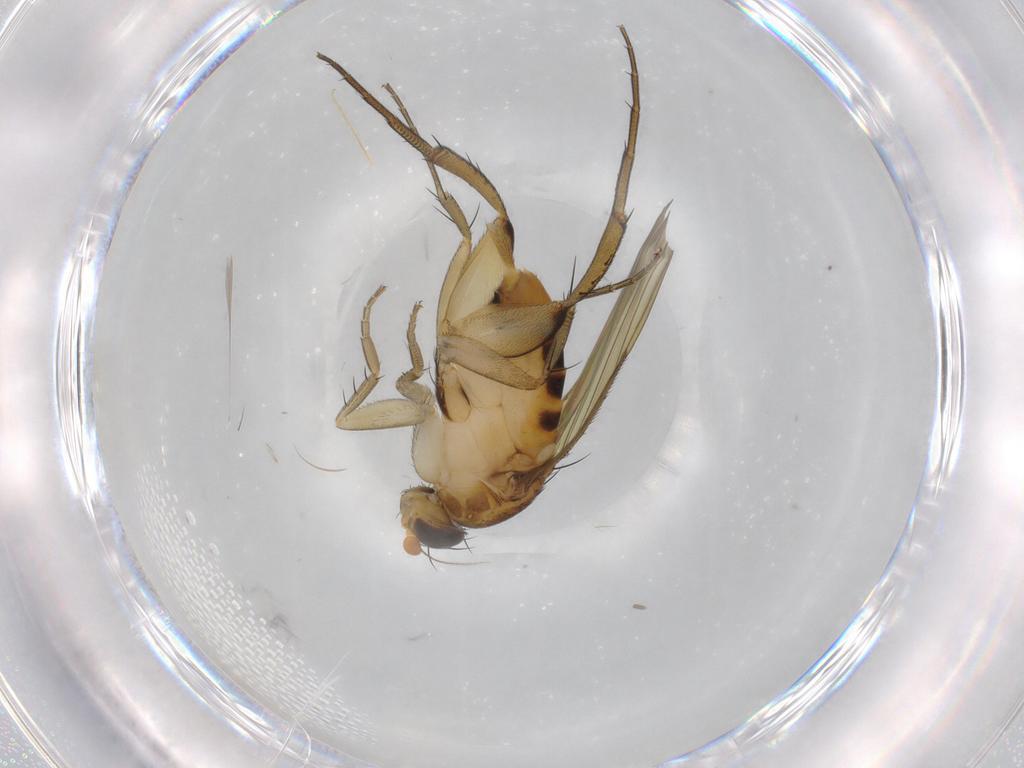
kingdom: Animalia
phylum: Arthropoda
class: Insecta
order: Diptera
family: Phoridae
